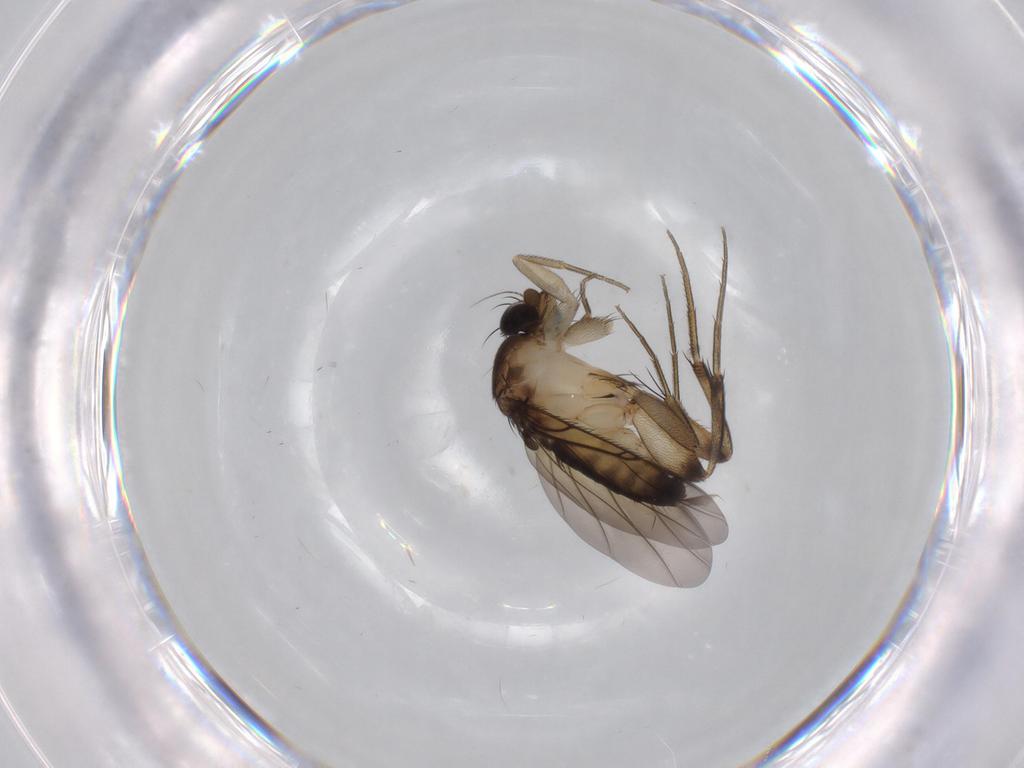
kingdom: Animalia
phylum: Arthropoda
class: Insecta
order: Diptera
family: Phoridae
